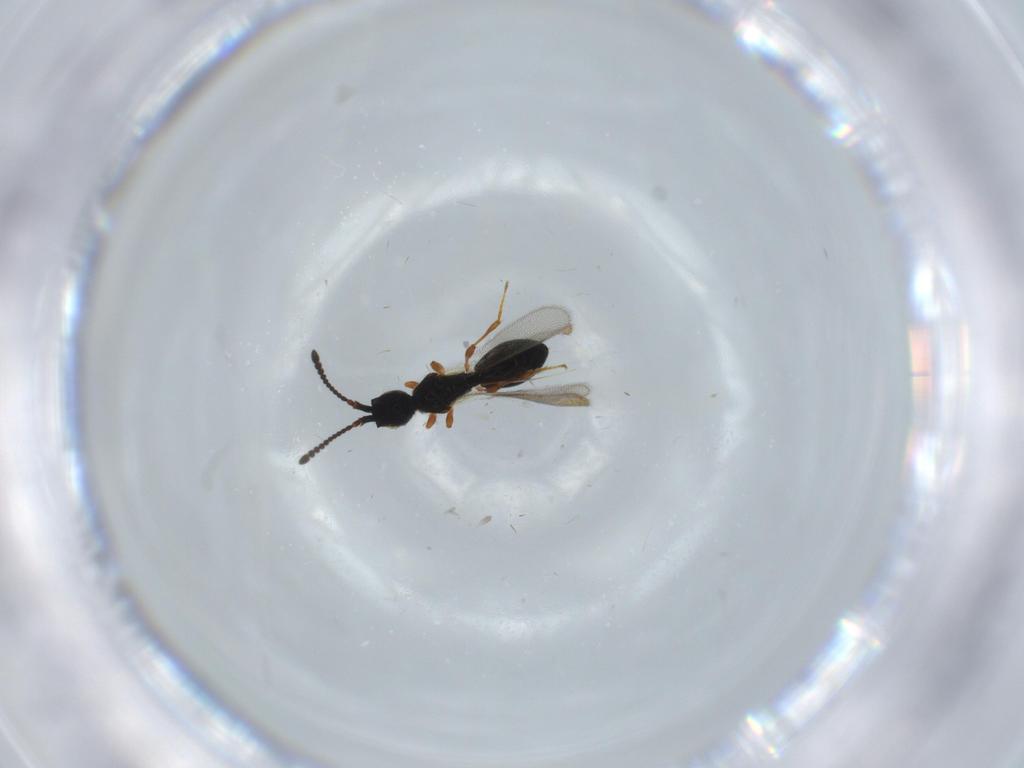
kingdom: Animalia
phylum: Arthropoda
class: Insecta
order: Hymenoptera
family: Diapriidae
